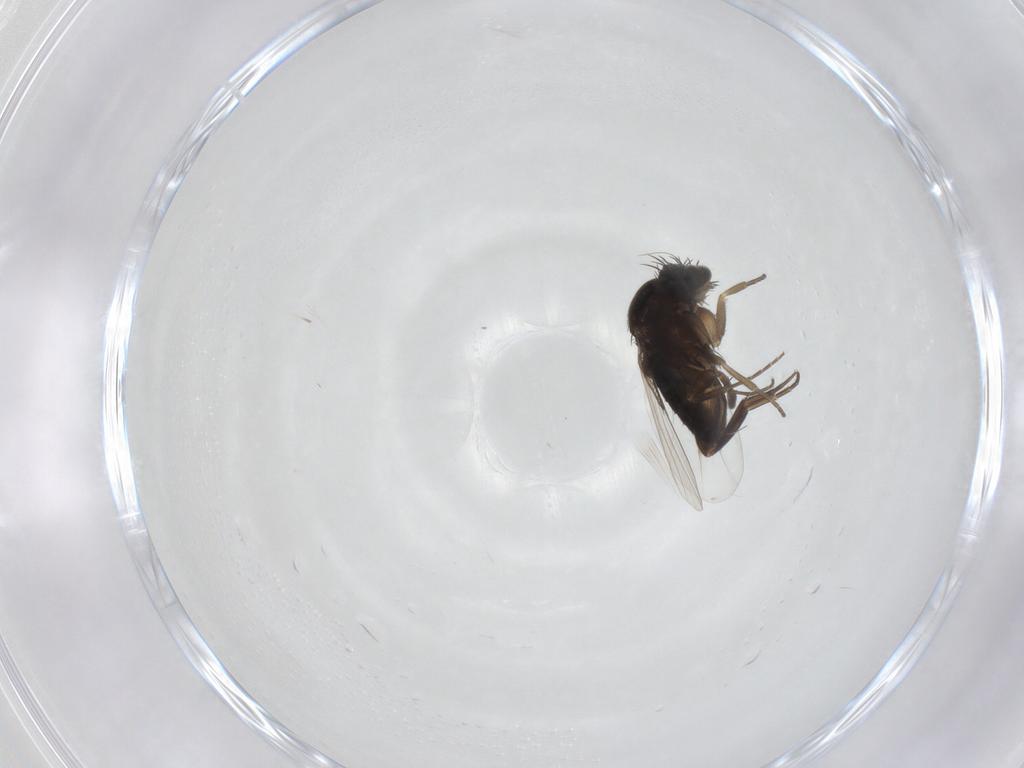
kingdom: Animalia
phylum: Arthropoda
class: Insecta
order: Diptera
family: Phoridae
